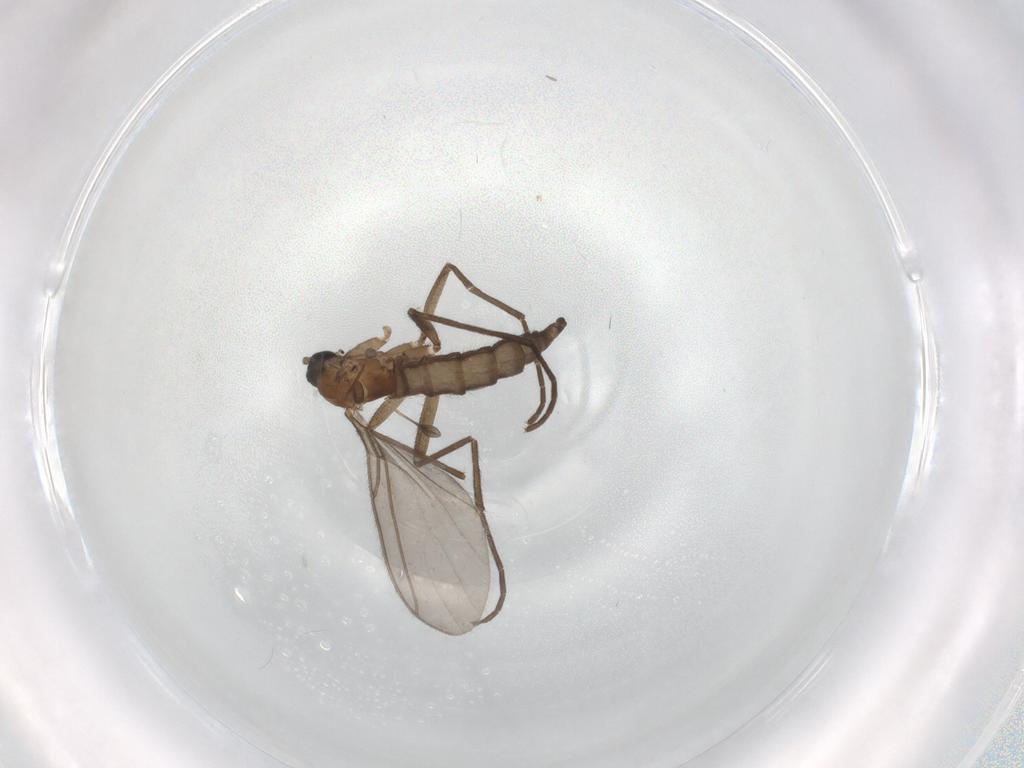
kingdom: Animalia
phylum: Arthropoda
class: Insecta
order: Diptera
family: Sciaridae
